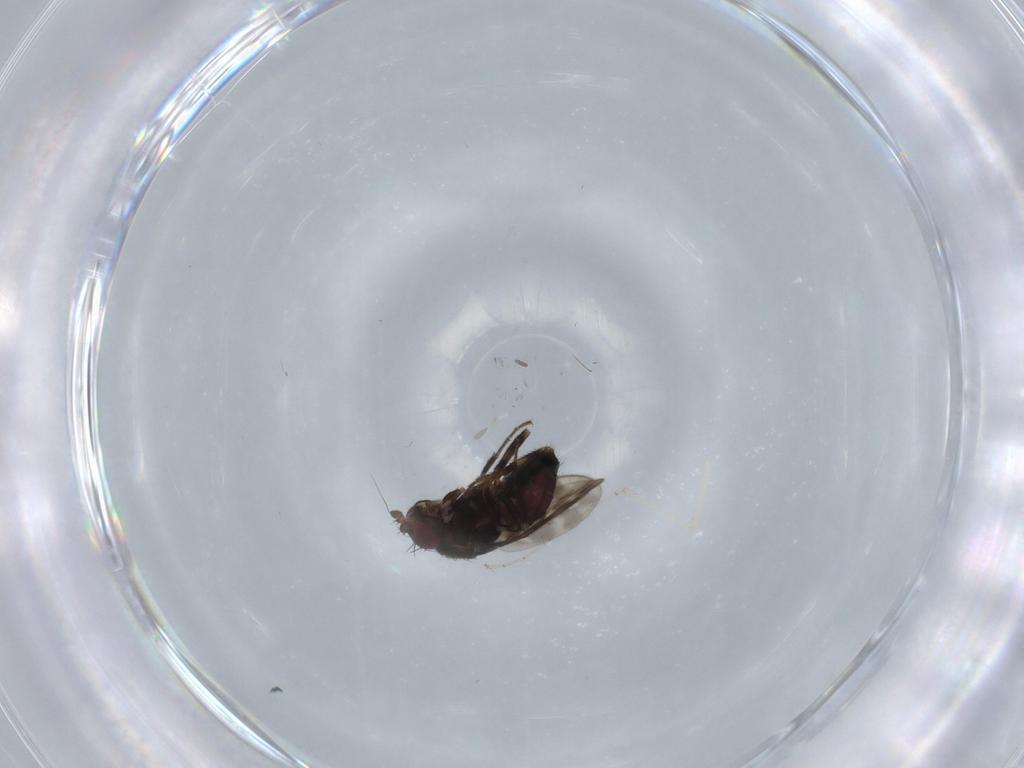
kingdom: Animalia
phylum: Arthropoda
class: Insecta
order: Diptera
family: Sphaeroceridae
